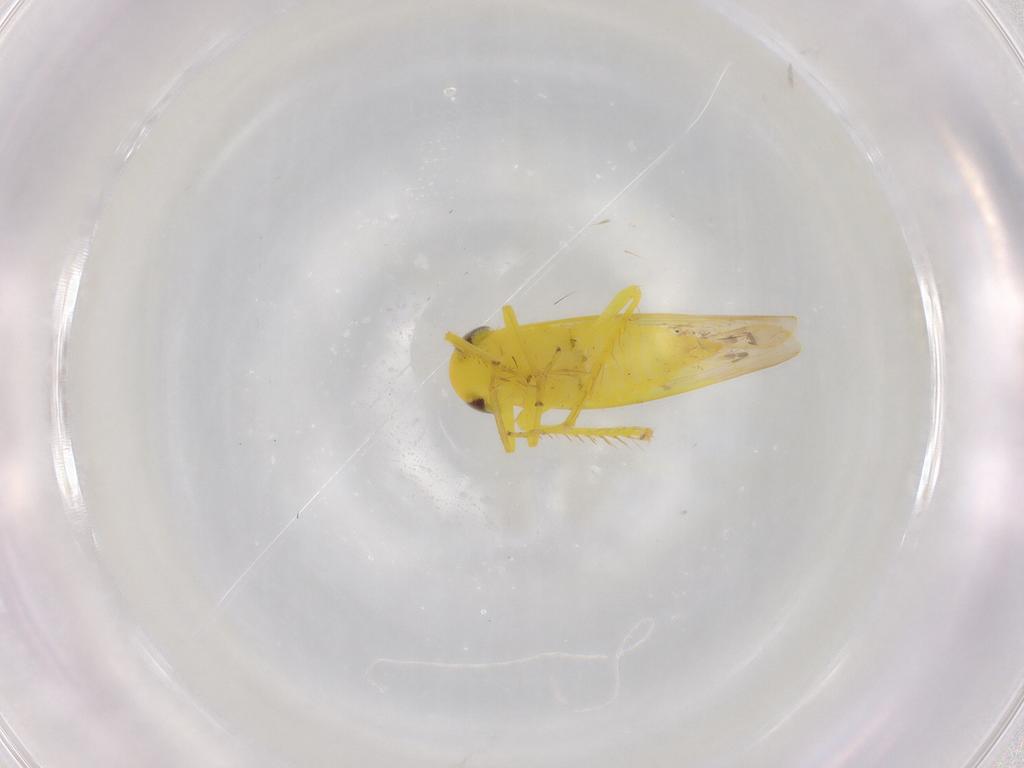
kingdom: Animalia
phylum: Arthropoda
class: Insecta
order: Hemiptera
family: Cicadellidae
